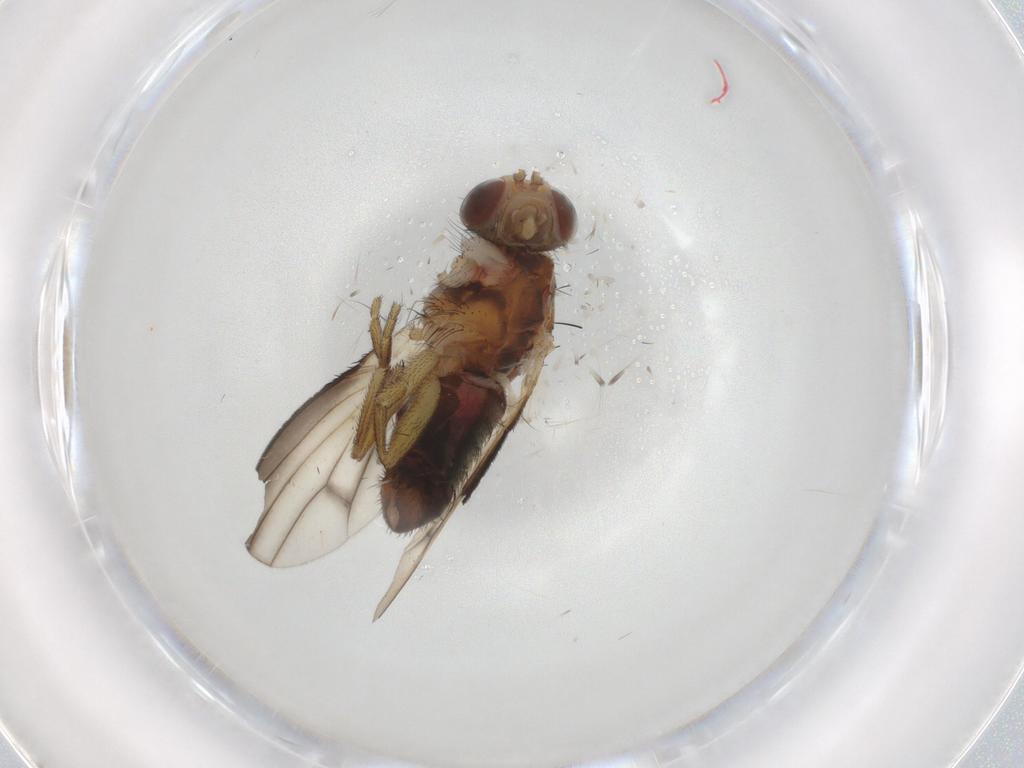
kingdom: Animalia
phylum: Arthropoda
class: Insecta
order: Diptera
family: Heleomyzidae
